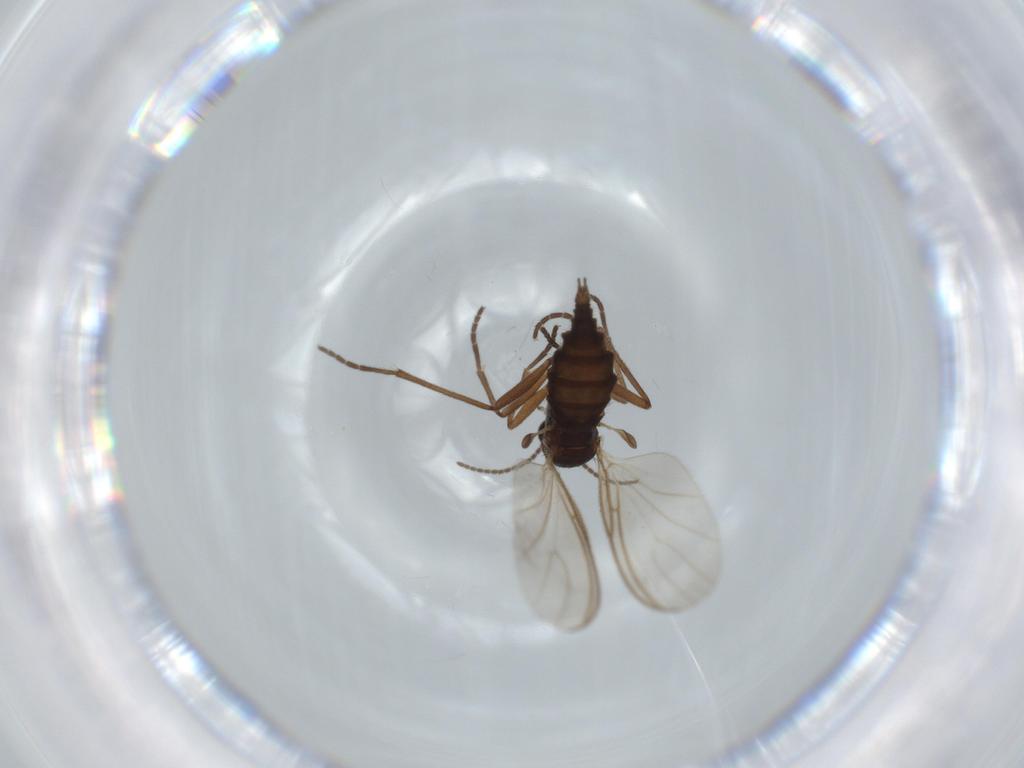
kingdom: Animalia
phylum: Arthropoda
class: Insecta
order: Diptera
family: Sciaridae
